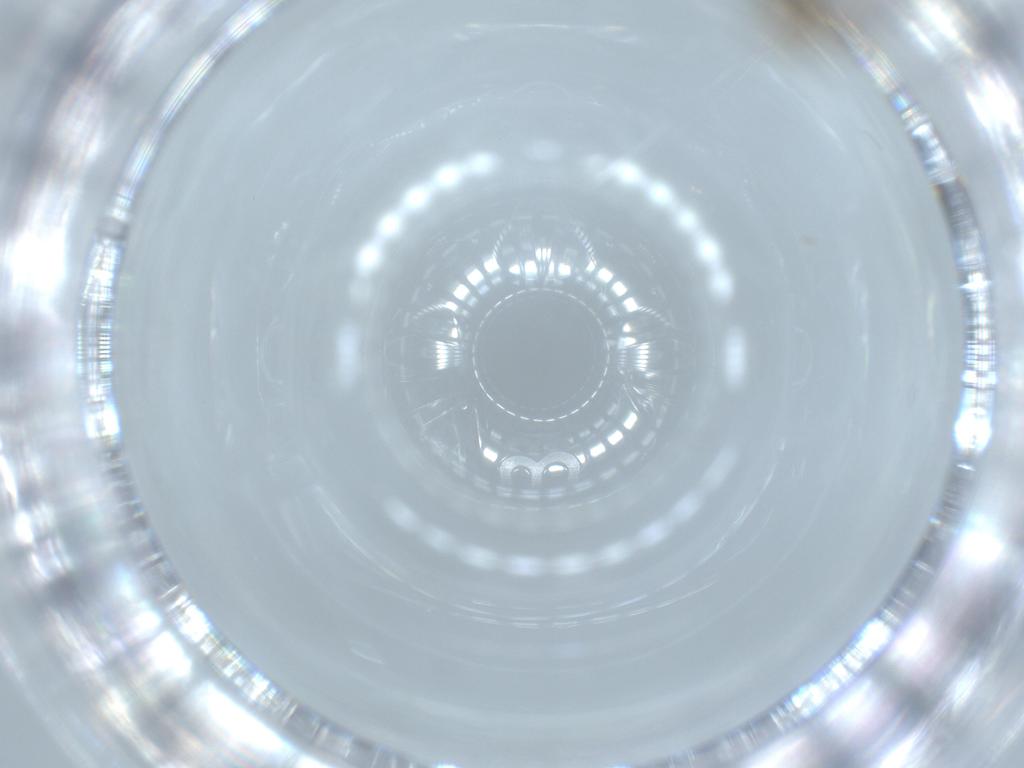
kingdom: Animalia
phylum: Arthropoda
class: Insecta
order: Diptera
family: Chironomidae
